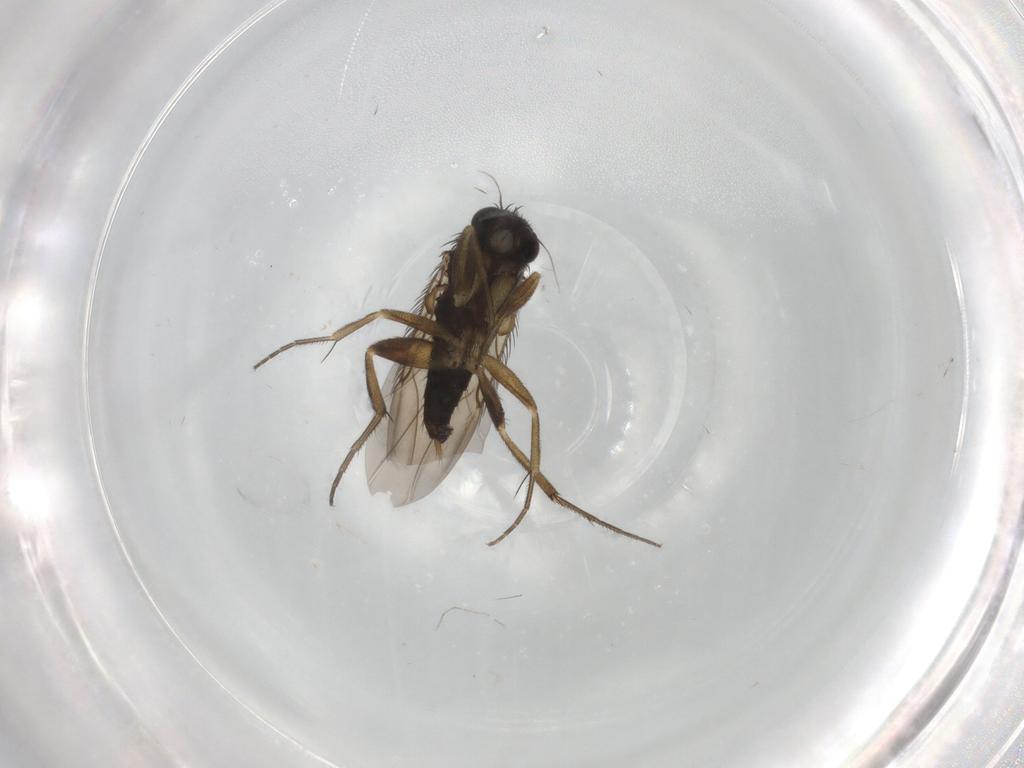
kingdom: Animalia
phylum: Arthropoda
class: Insecta
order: Diptera
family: Phoridae
